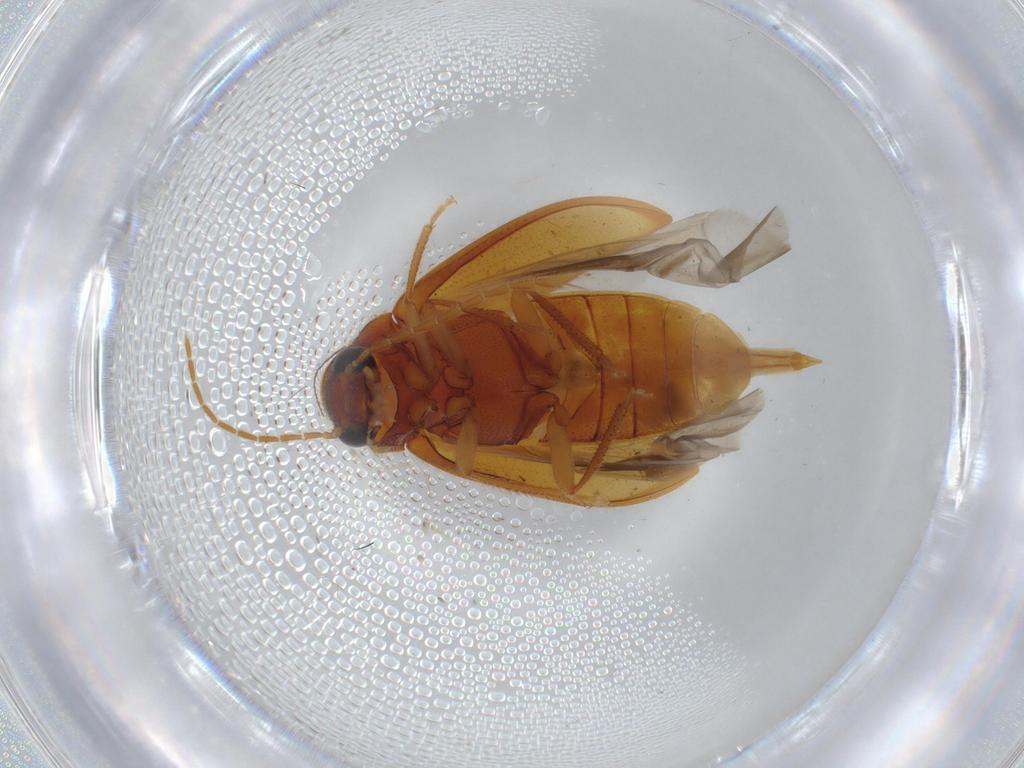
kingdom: Animalia
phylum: Arthropoda
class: Insecta
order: Coleoptera
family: Ptilodactylidae
